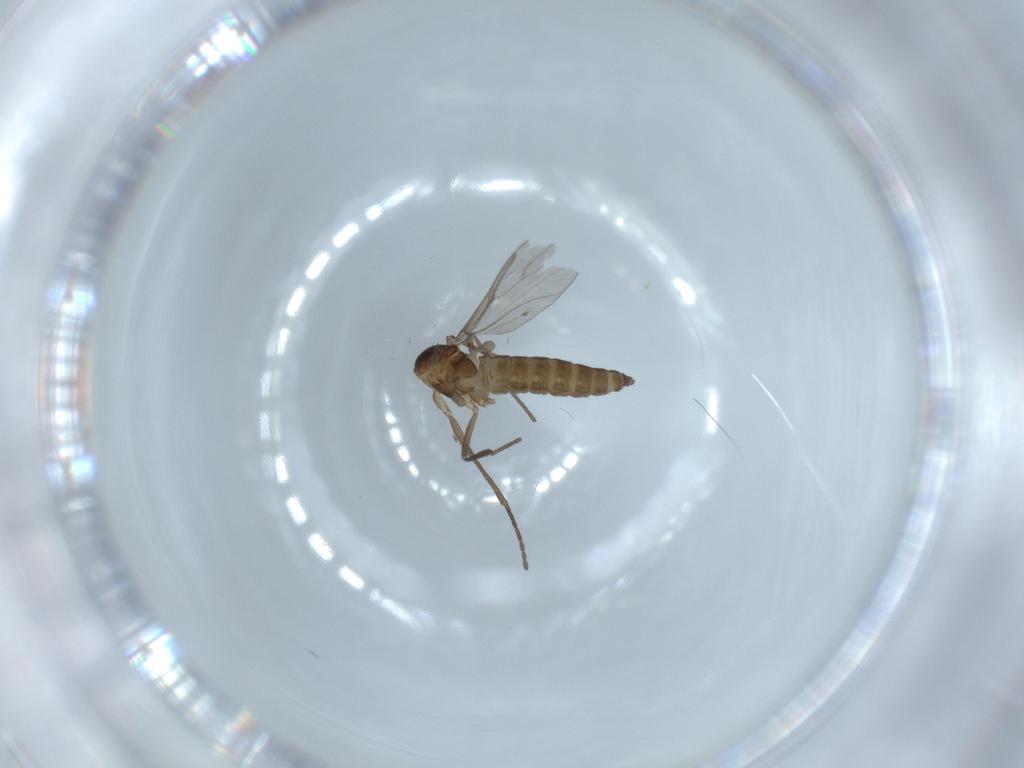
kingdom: Animalia
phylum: Arthropoda
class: Insecta
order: Diptera
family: Cecidomyiidae
